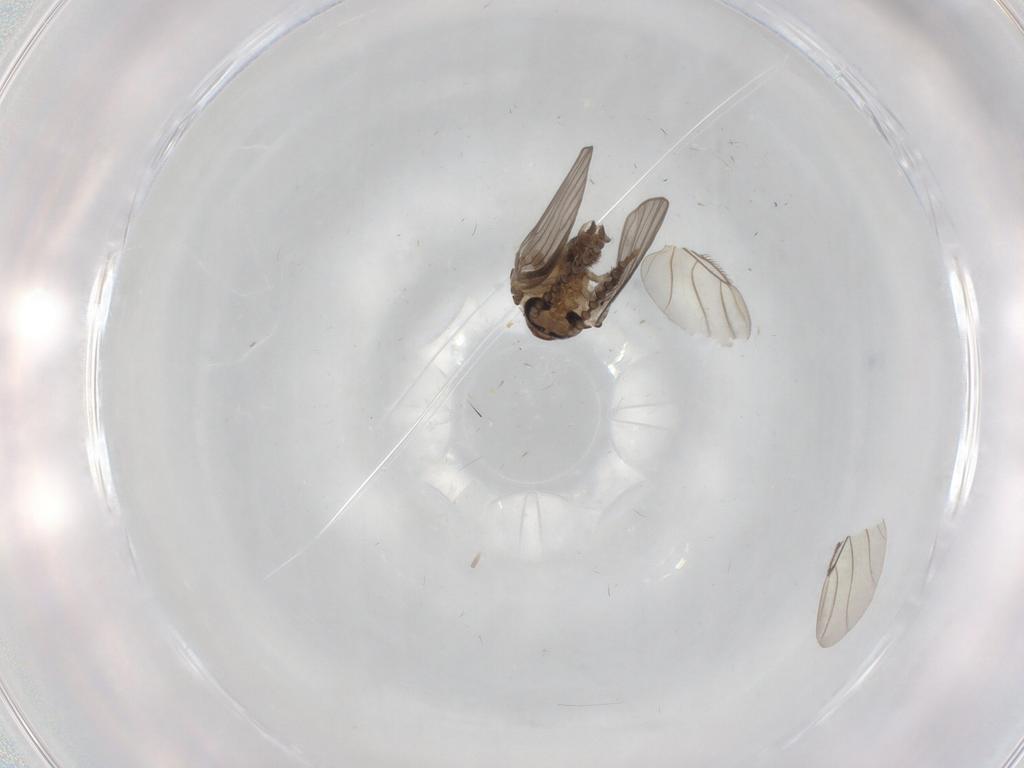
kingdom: Animalia
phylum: Arthropoda
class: Insecta
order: Diptera
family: Psychodidae
